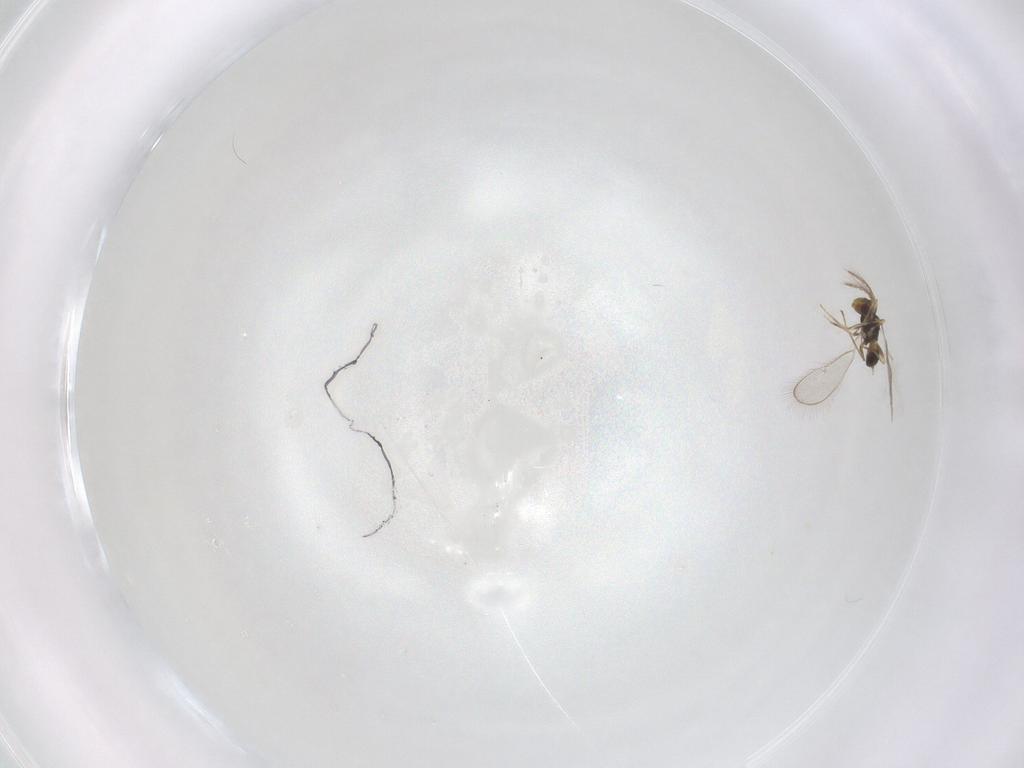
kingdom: Animalia
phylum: Arthropoda
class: Insecta
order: Hymenoptera
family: Eulophidae
